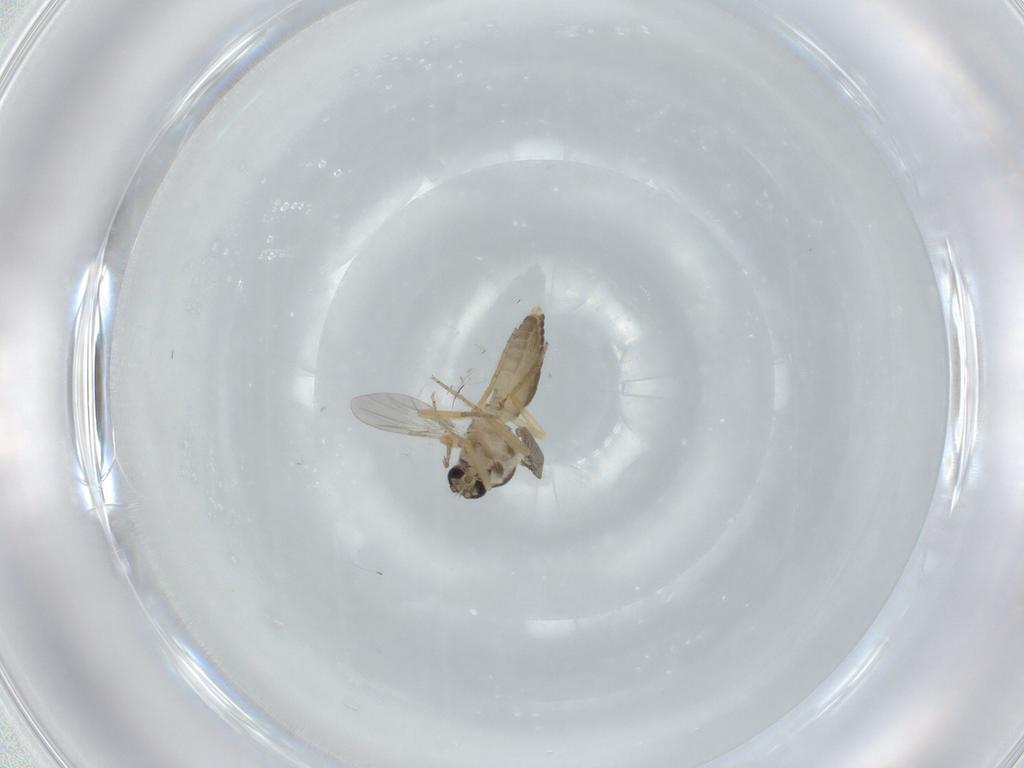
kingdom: Animalia
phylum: Arthropoda
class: Insecta
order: Diptera
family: Ceratopogonidae
